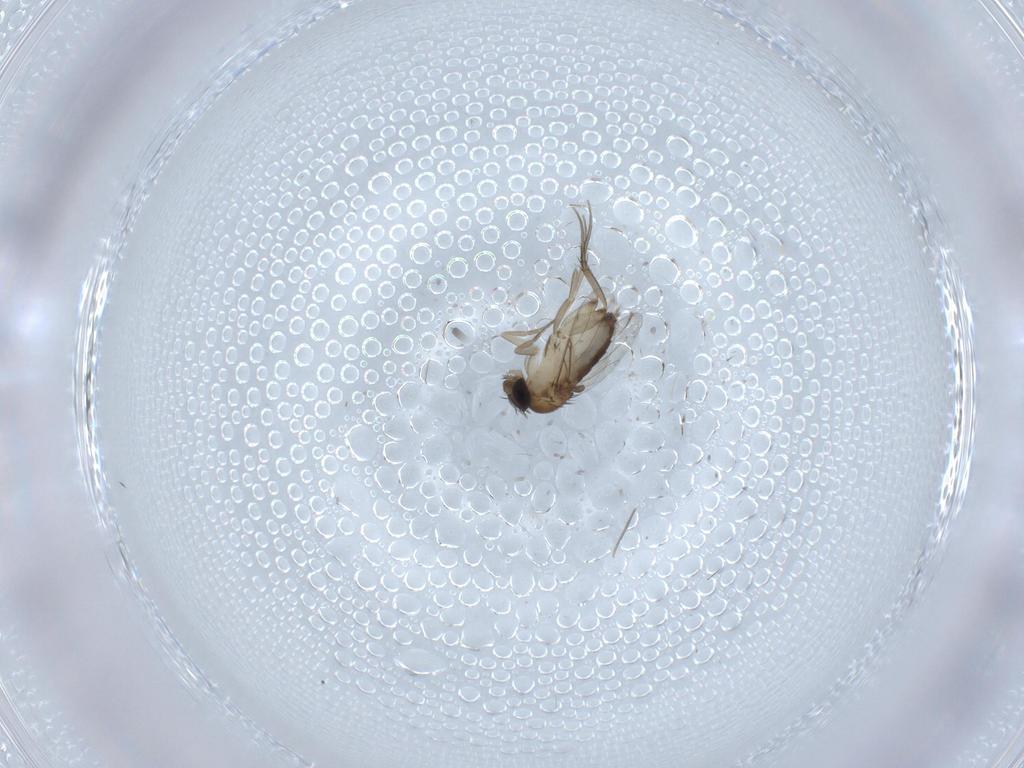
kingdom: Animalia
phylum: Arthropoda
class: Insecta
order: Diptera
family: Phoridae
